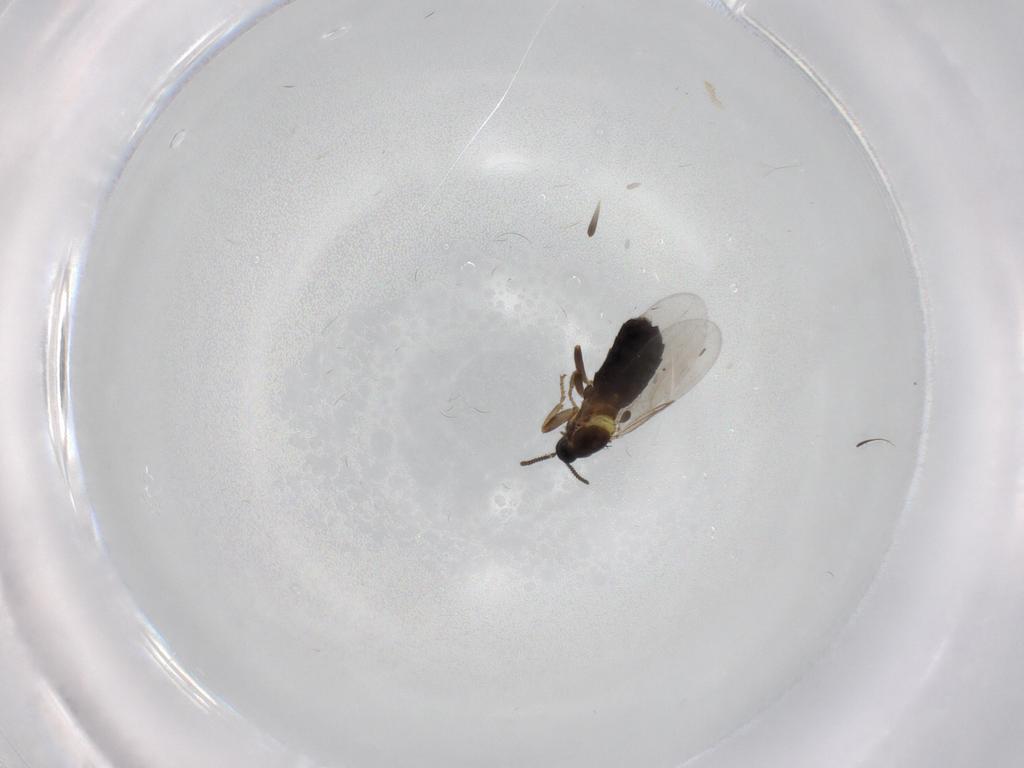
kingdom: Animalia
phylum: Arthropoda
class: Insecta
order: Diptera
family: Scatopsidae
